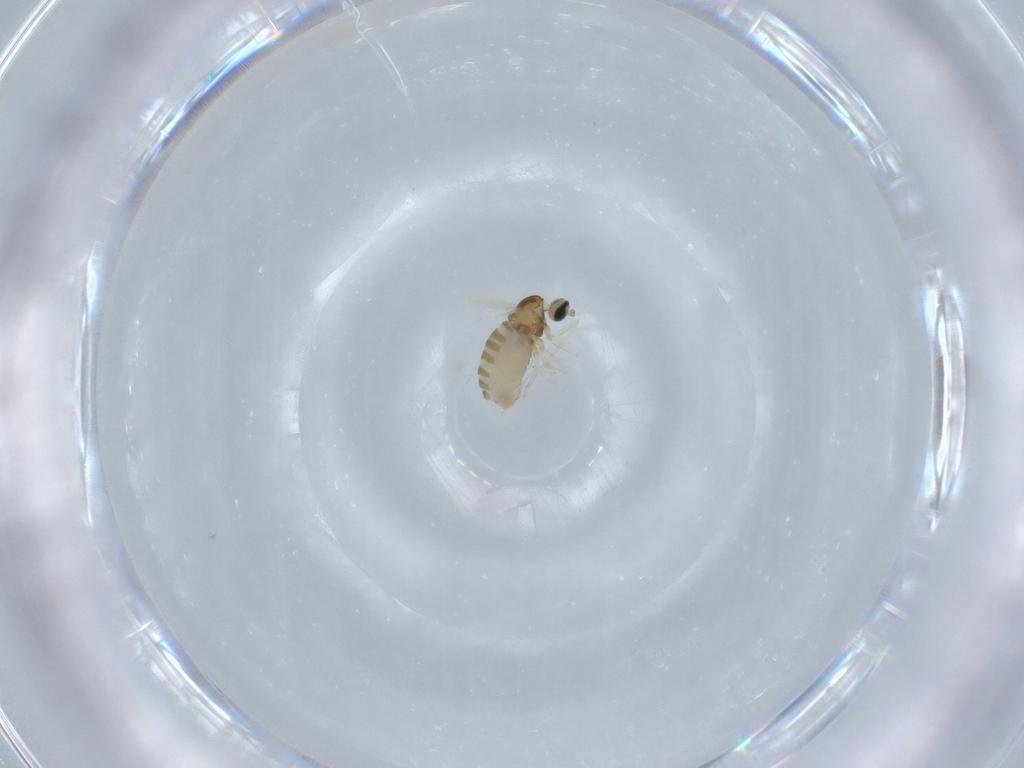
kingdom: Animalia
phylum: Arthropoda
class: Insecta
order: Diptera
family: Cecidomyiidae
